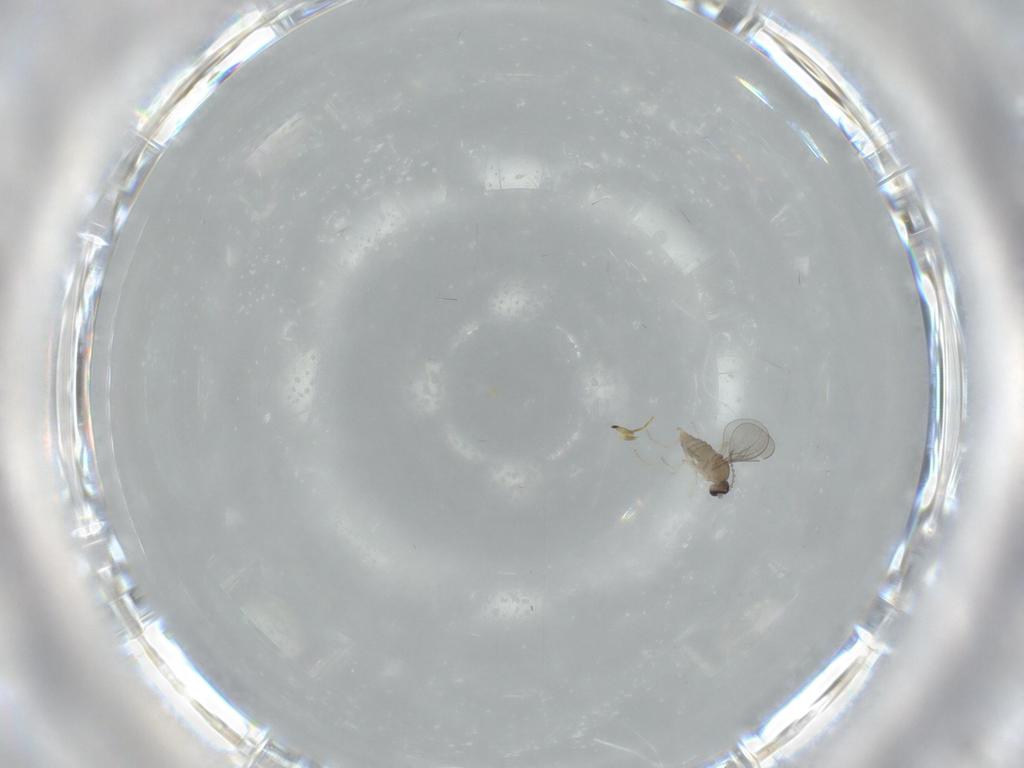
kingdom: Animalia
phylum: Arthropoda
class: Insecta
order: Diptera
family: Cecidomyiidae
